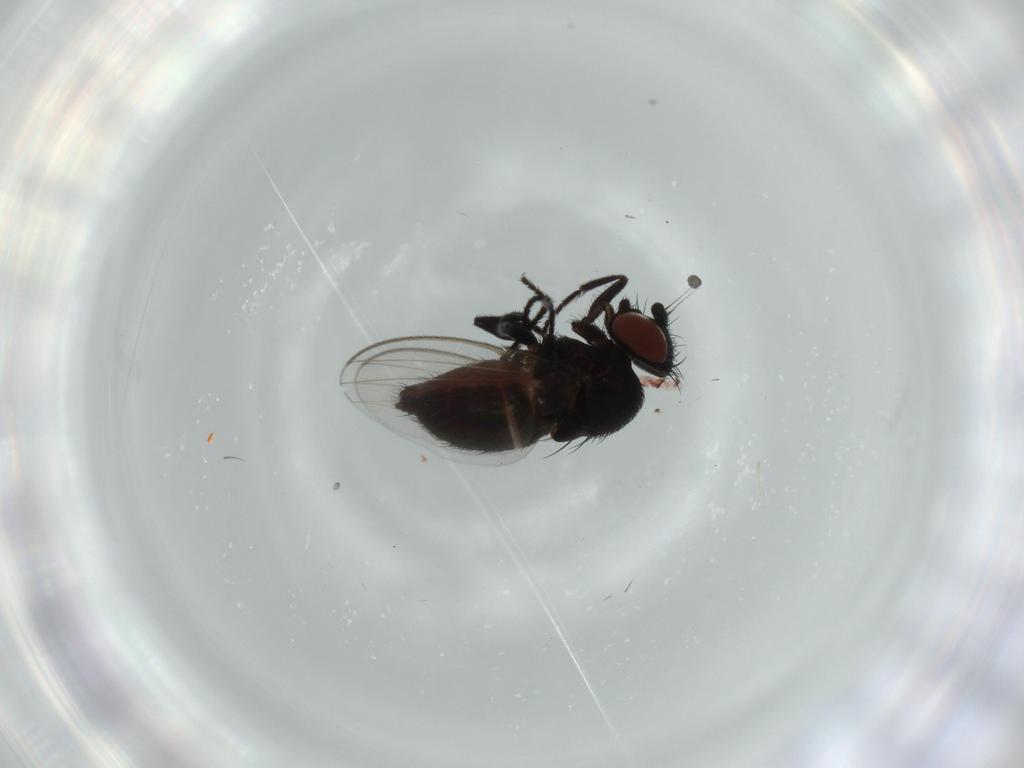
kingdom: Animalia
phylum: Arthropoda
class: Insecta
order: Diptera
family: Milichiidae
